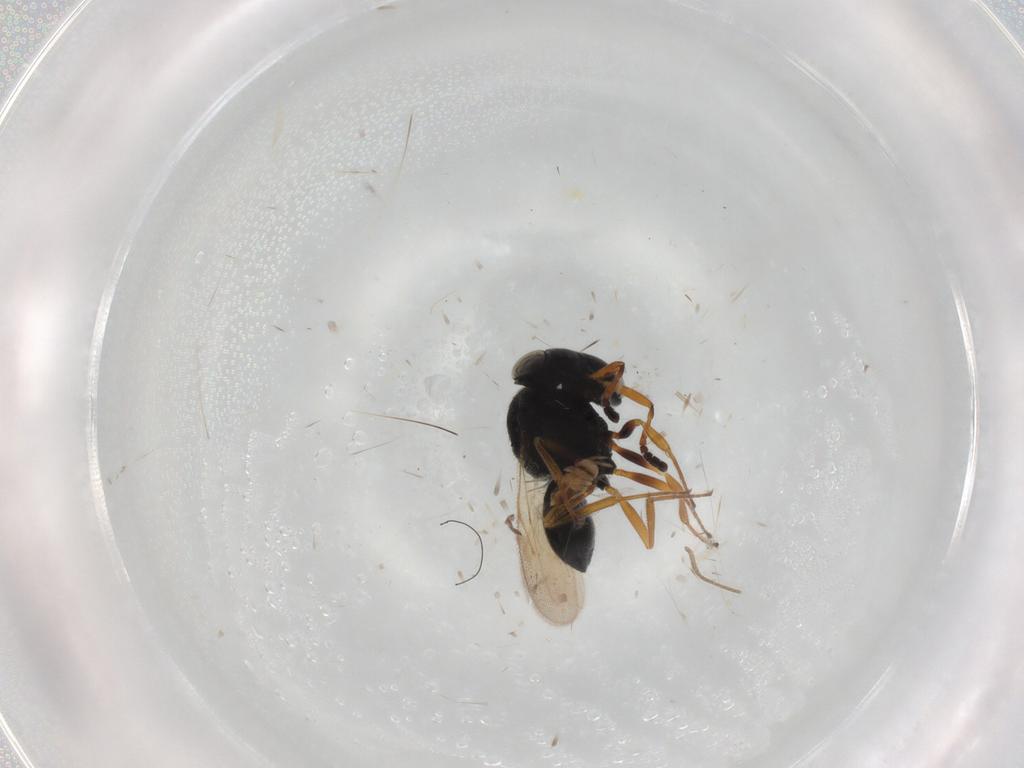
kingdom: Animalia
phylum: Arthropoda
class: Insecta
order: Hymenoptera
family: Scelionidae
